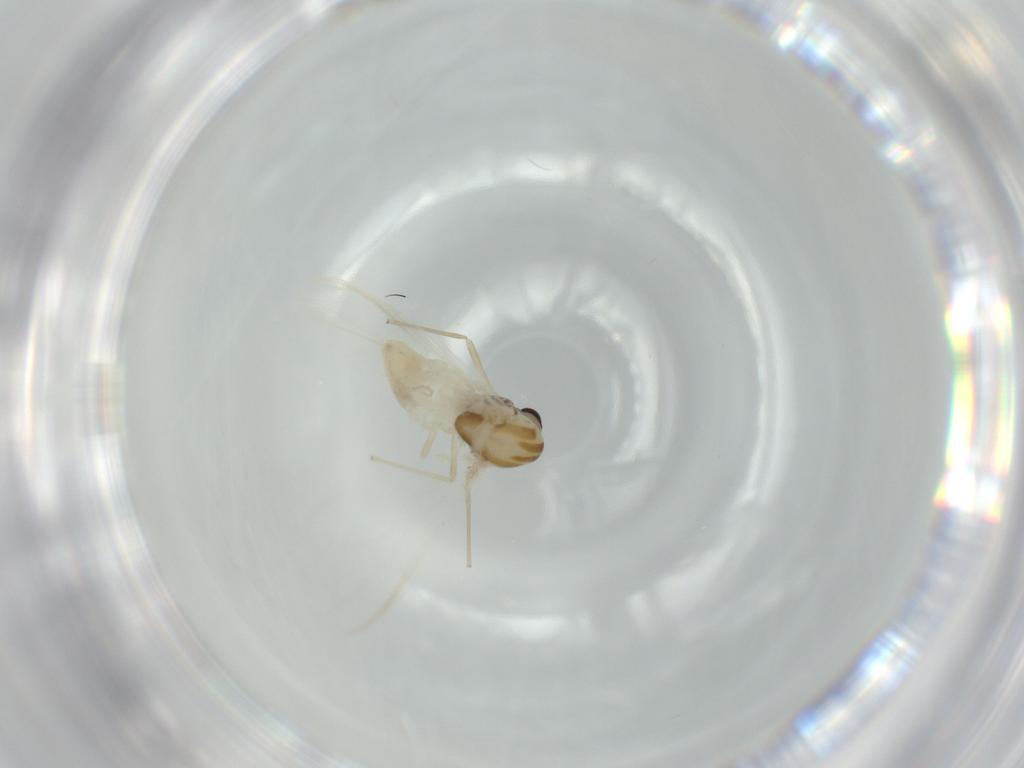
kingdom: Animalia
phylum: Arthropoda
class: Insecta
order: Diptera
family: Chironomidae
